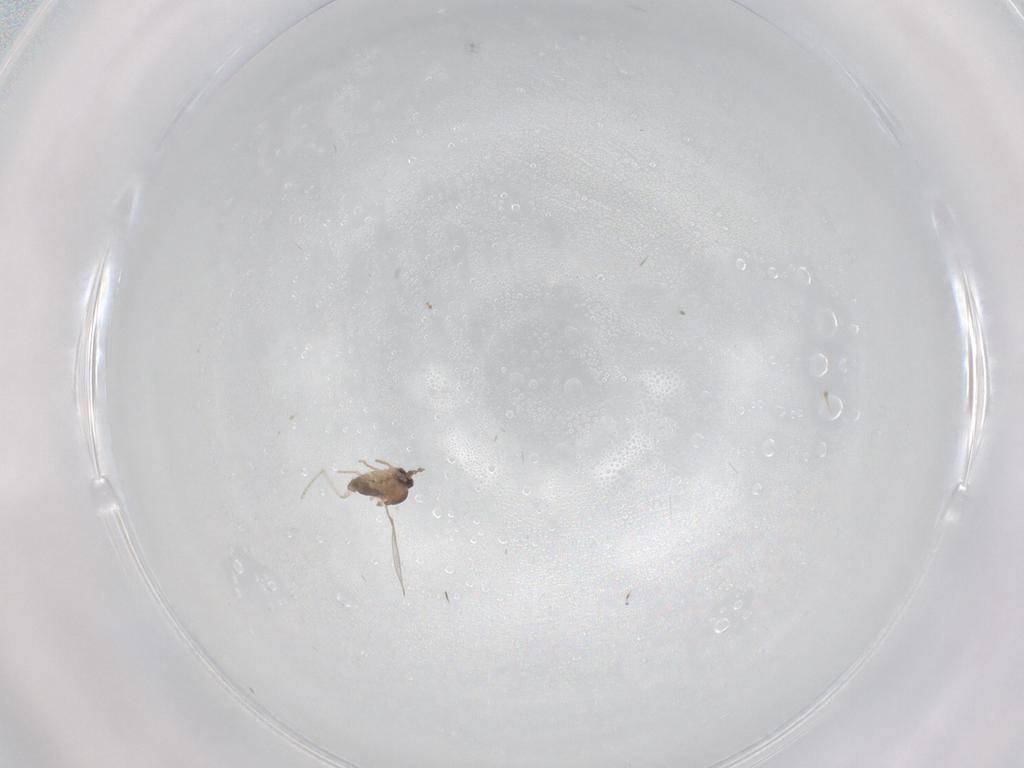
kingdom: Animalia
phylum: Arthropoda
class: Insecta
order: Diptera
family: Cecidomyiidae
